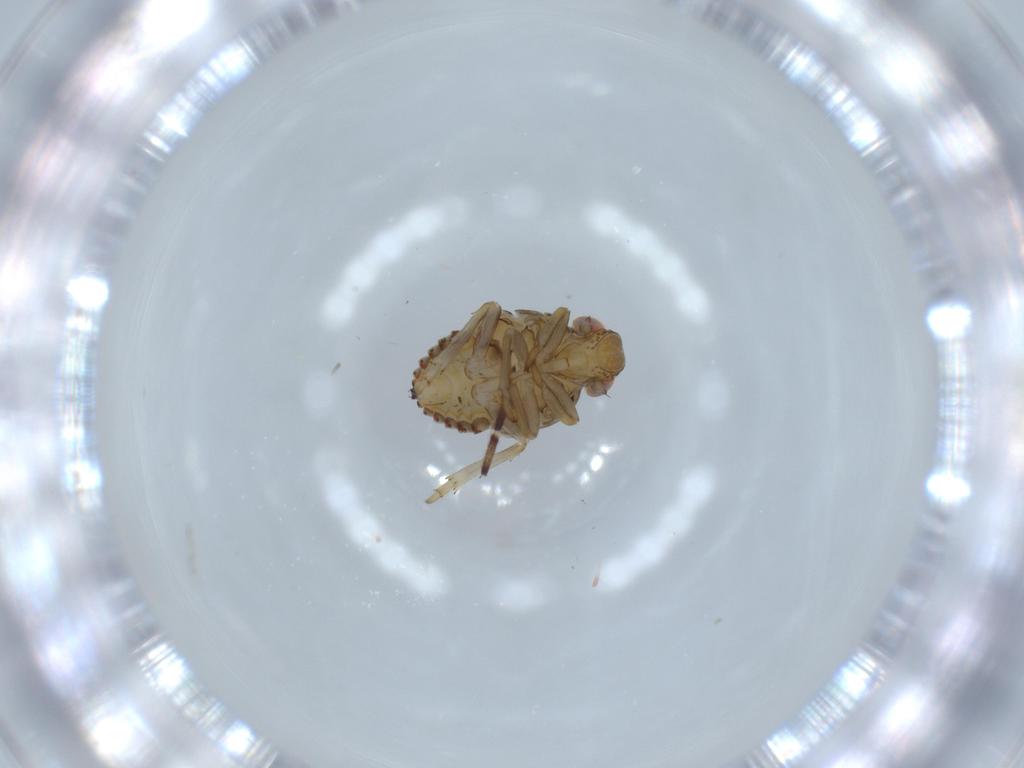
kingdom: Animalia
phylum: Arthropoda
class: Insecta
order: Hemiptera
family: Issidae
